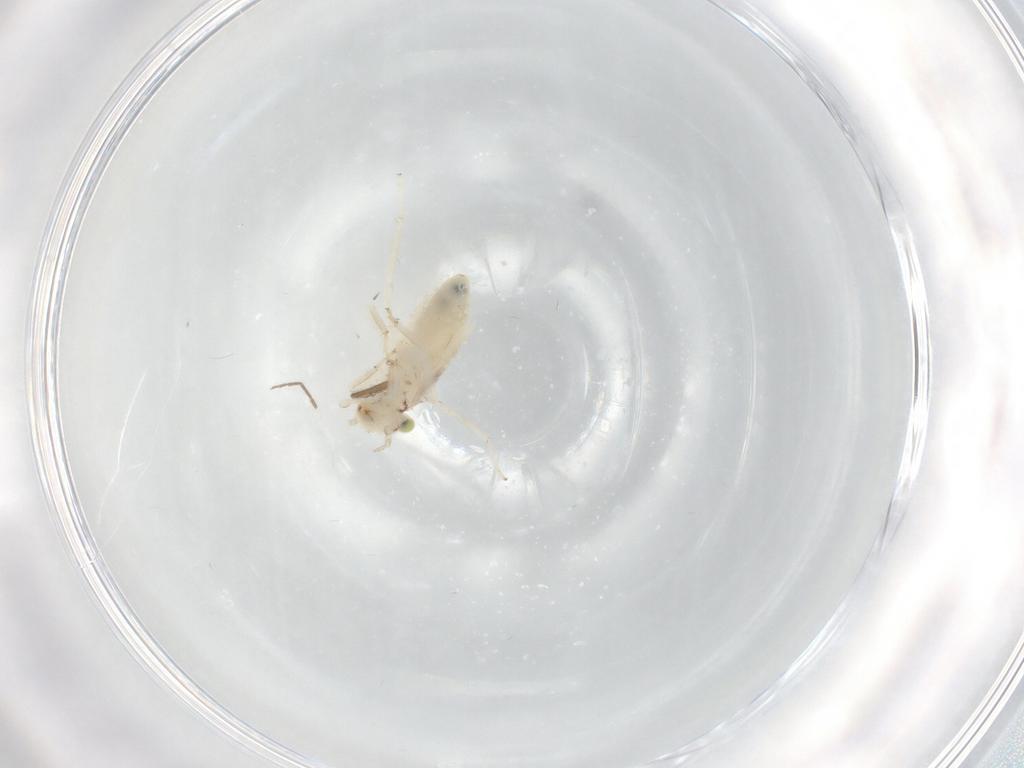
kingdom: Animalia
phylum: Arthropoda
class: Insecta
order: Psocodea
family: Lepidopsocidae
